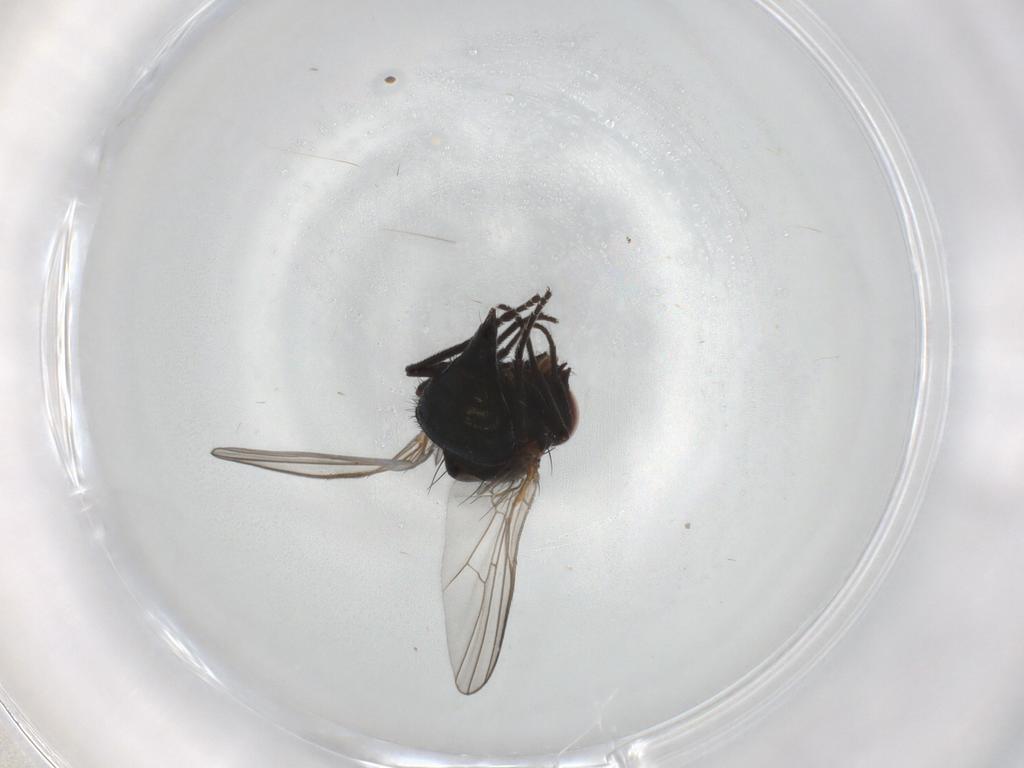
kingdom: Animalia
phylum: Arthropoda
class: Insecta
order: Diptera
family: Agromyzidae
